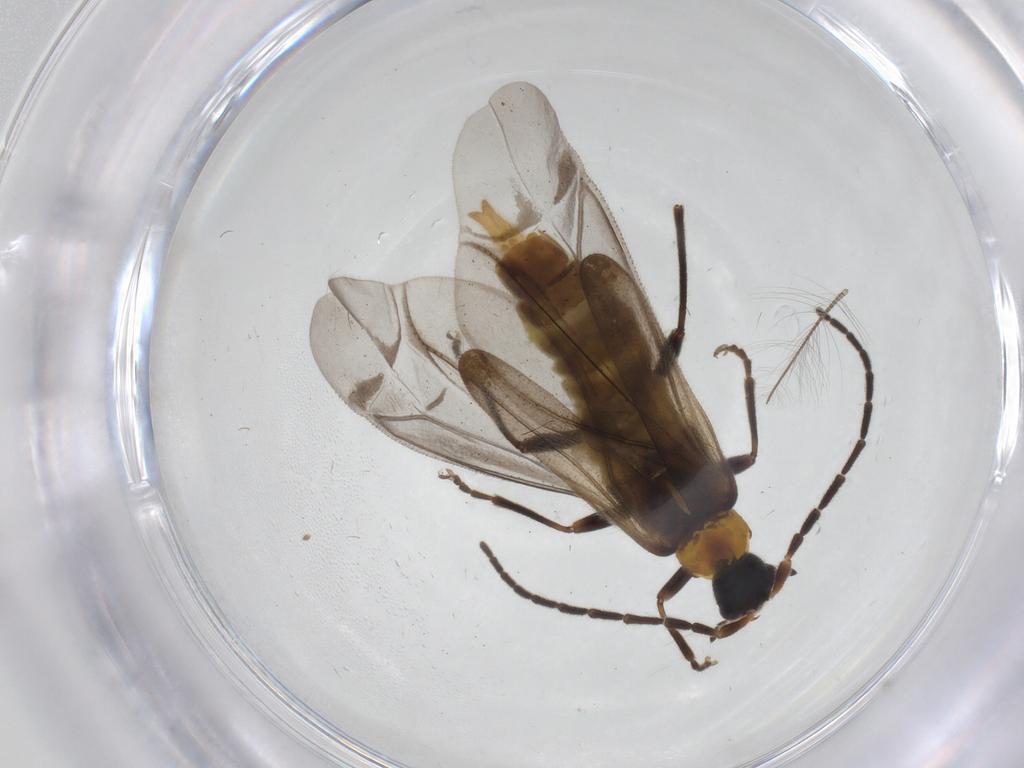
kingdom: Animalia
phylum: Arthropoda
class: Insecta
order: Coleoptera
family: Cantharidae
